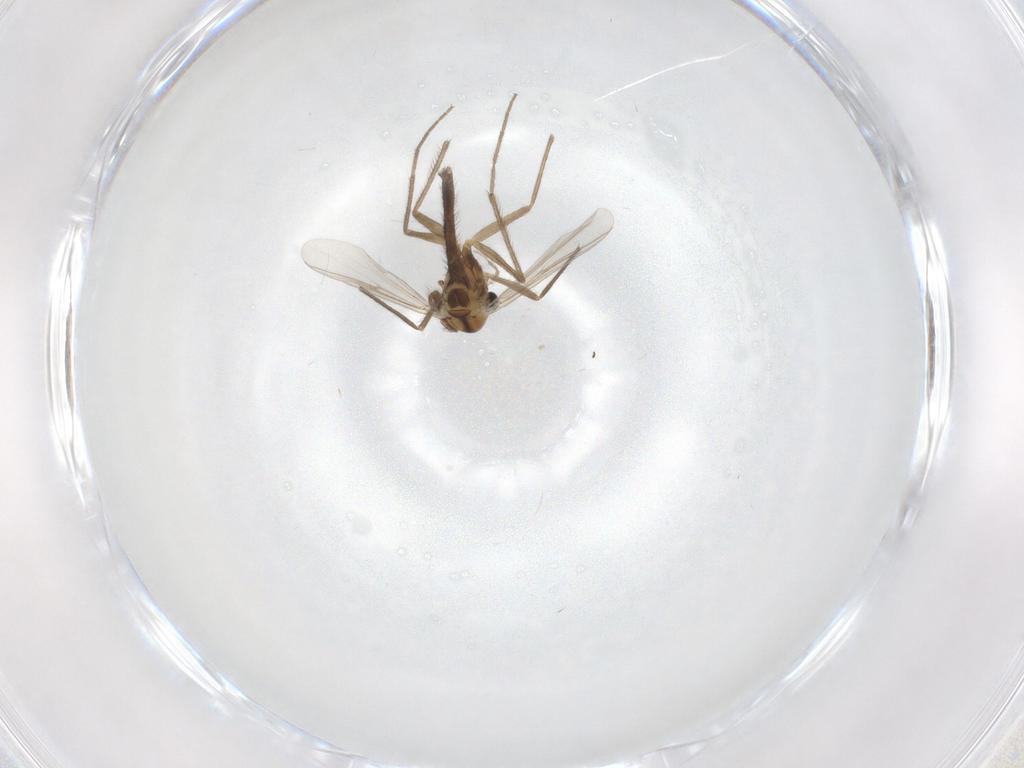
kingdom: Animalia
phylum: Arthropoda
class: Insecta
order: Diptera
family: Chironomidae
